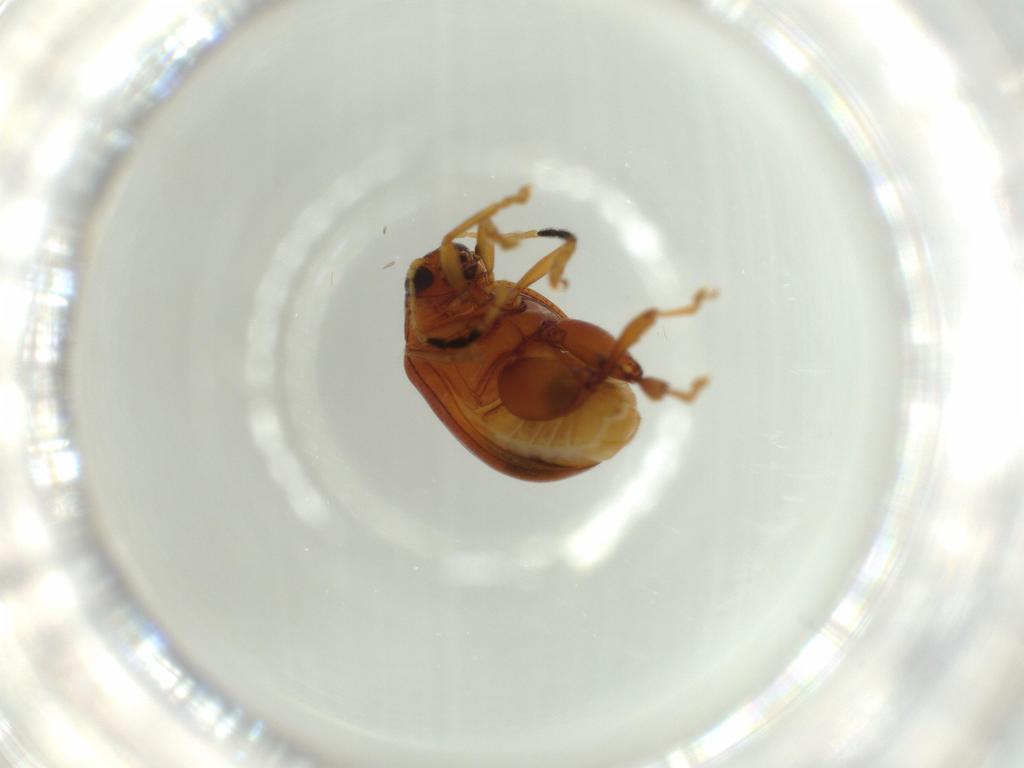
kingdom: Animalia
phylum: Arthropoda
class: Insecta
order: Coleoptera
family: Chrysomelidae
